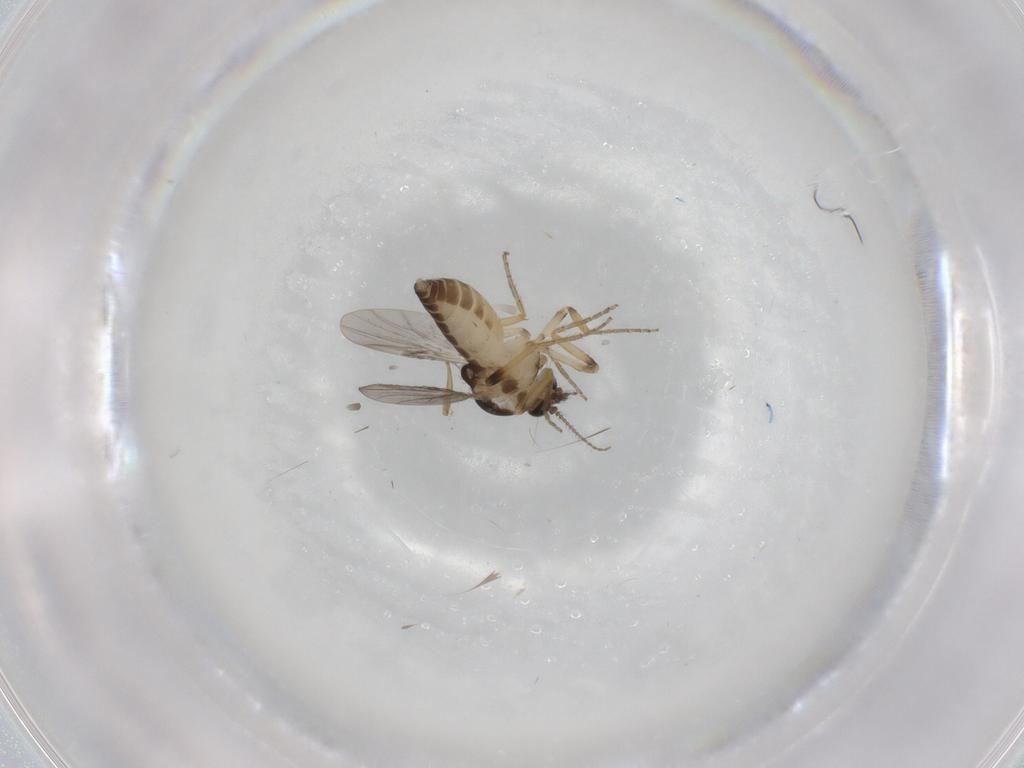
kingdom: Animalia
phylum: Arthropoda
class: Insecta
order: Diptera
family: Ceratopogonidae
